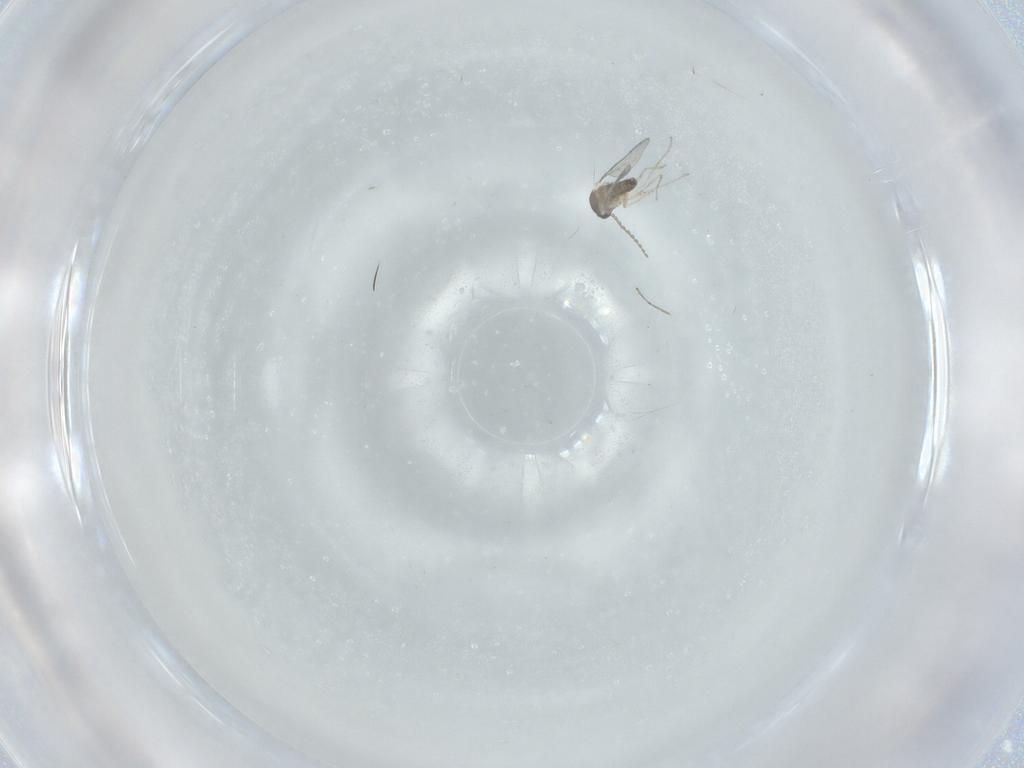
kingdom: Animalia
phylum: Arthropoda
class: Insecta
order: Diptera
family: Cecidomyiidae
